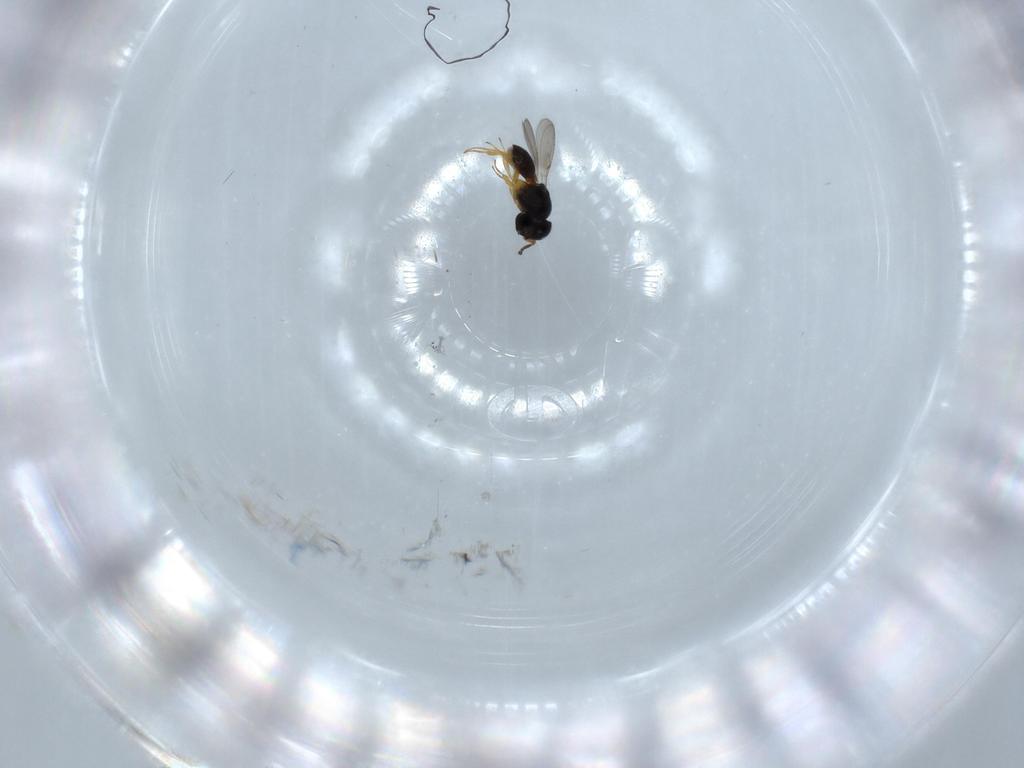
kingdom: Animalia
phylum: Arthropoda
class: Insecta
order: Hymenoptera
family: Scelionidae
